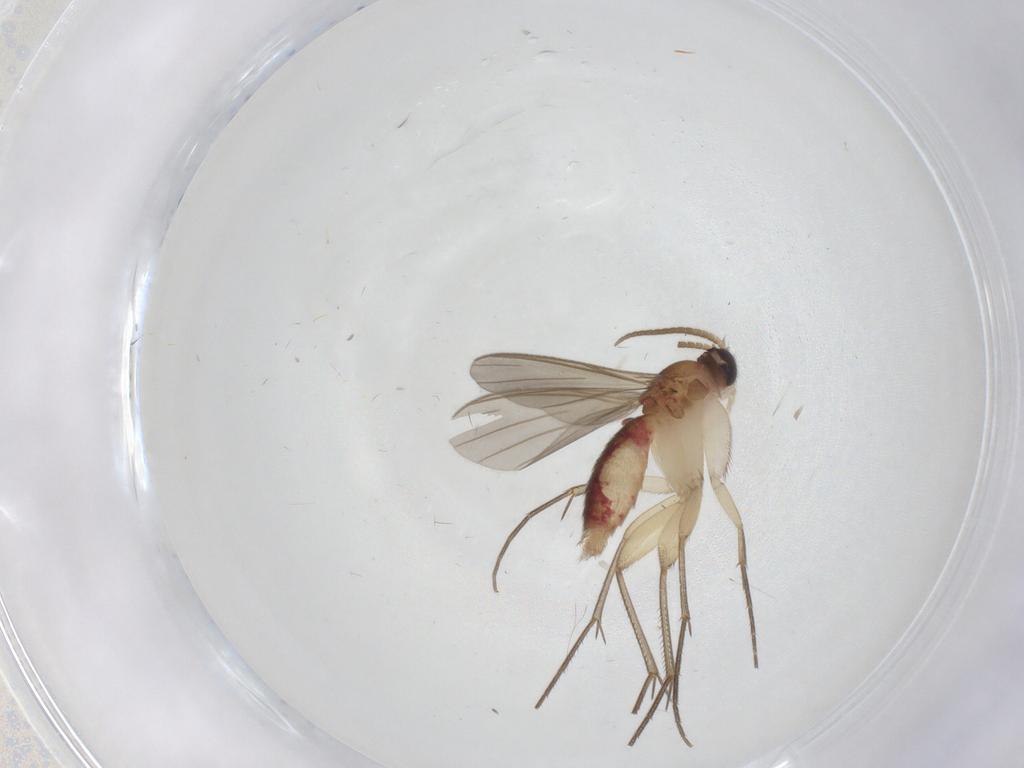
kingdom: Animalia
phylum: Arthropoda
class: Insecta
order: Diptera
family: Mycetophilidae
